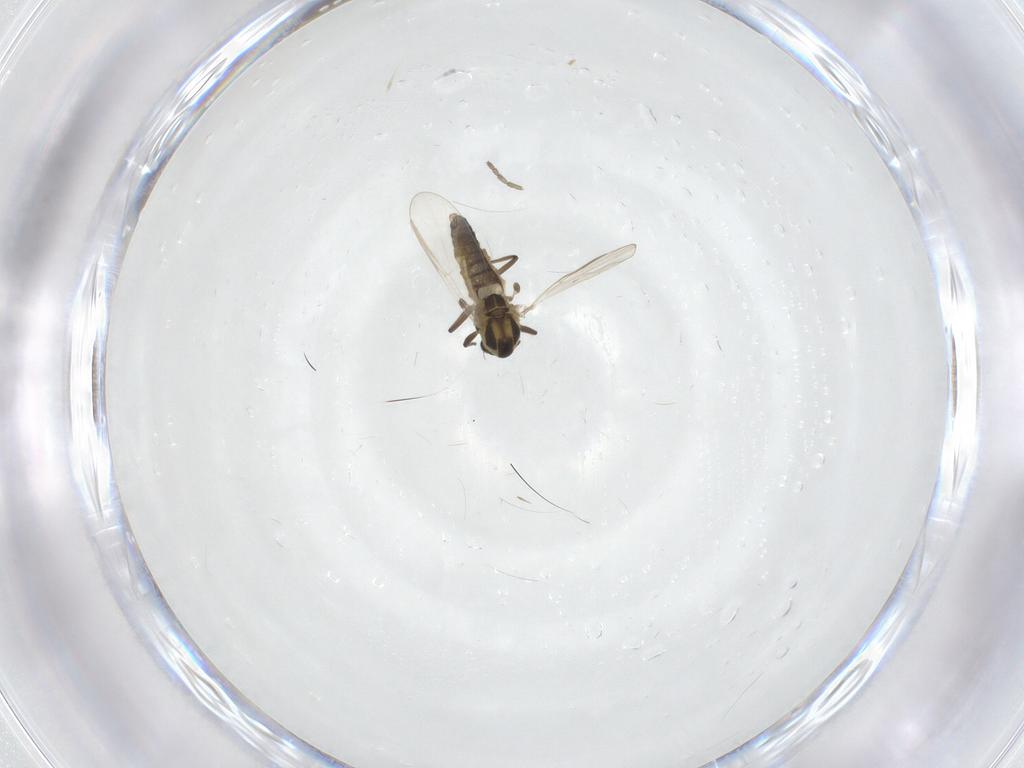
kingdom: Animalia
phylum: Arthropoda
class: Insecta
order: Diptera
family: Chironomidae
